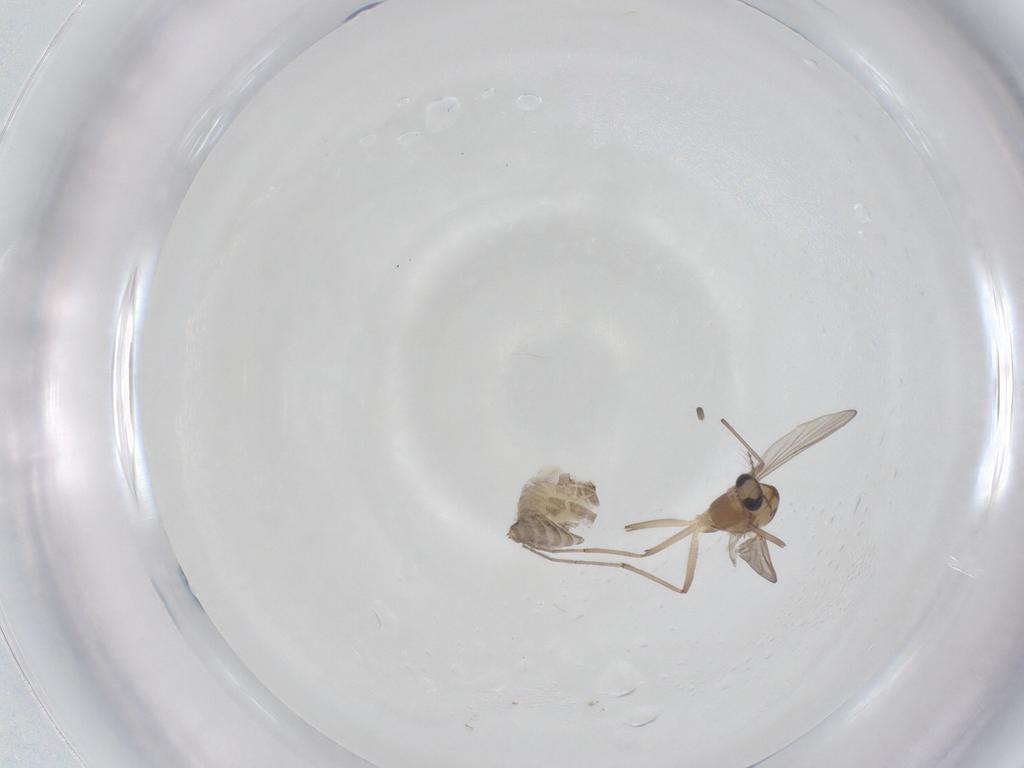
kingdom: Animalia
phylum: Arthropoda
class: Insecta
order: Diptera
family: Chironomidae
